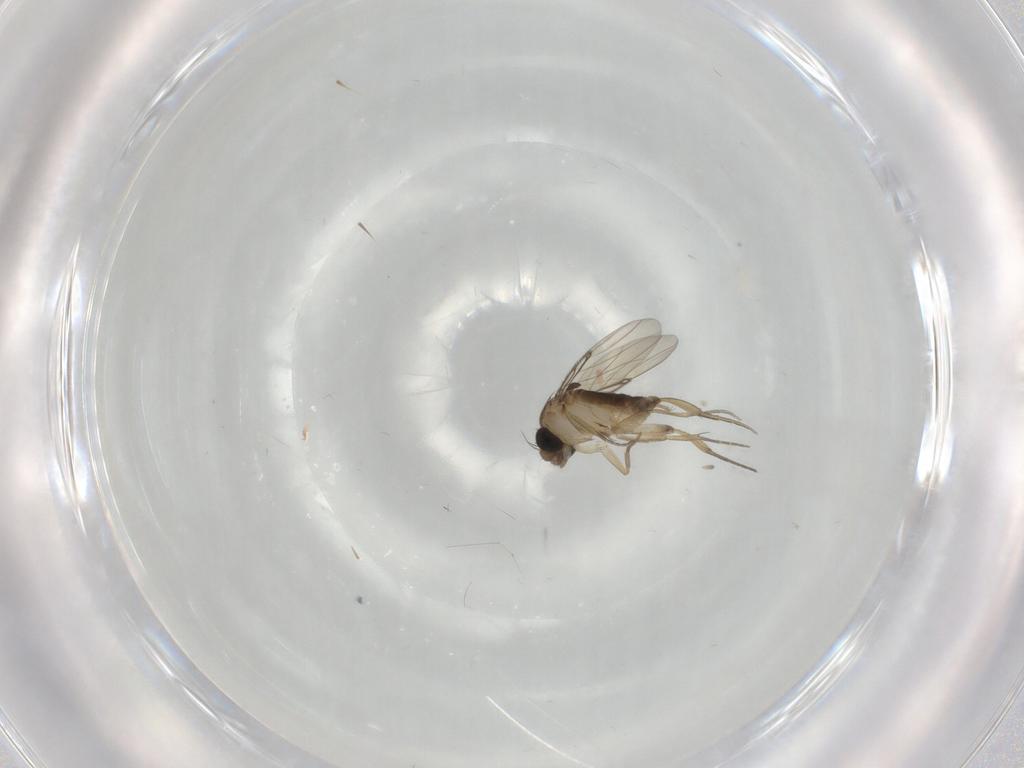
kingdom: Animalia
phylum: Arthropoda
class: Insecta
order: Diptera
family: Phoridae
